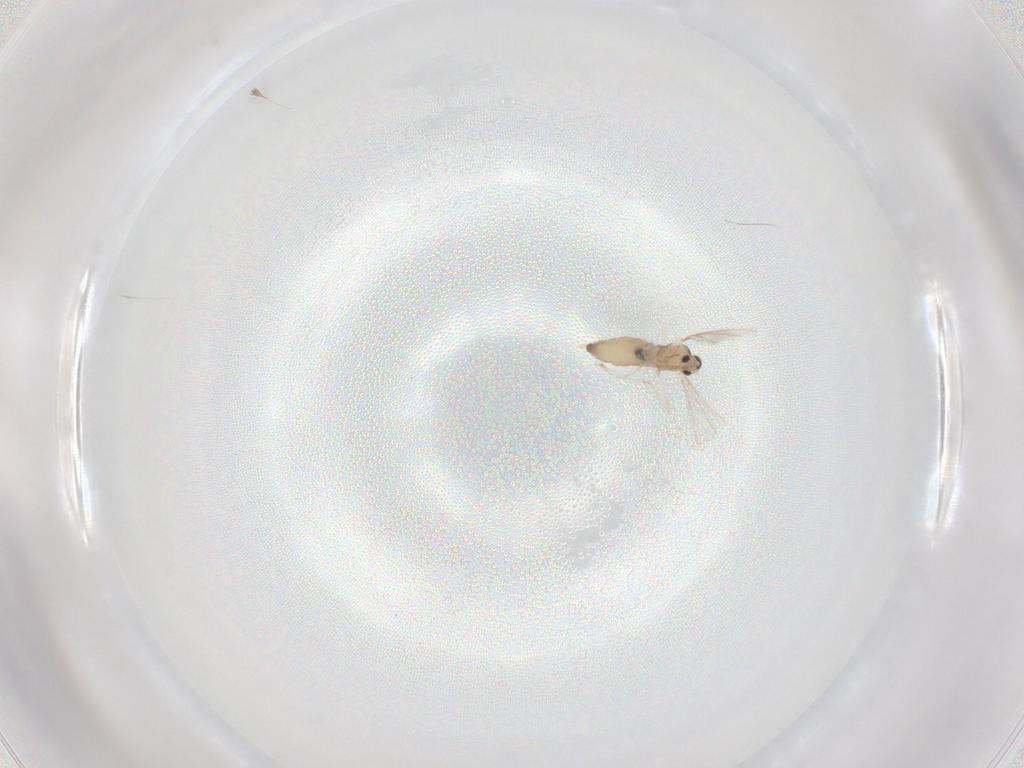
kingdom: Animalia
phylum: Arthropoda
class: Insecta
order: Diptera
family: Cecidomyiidae
